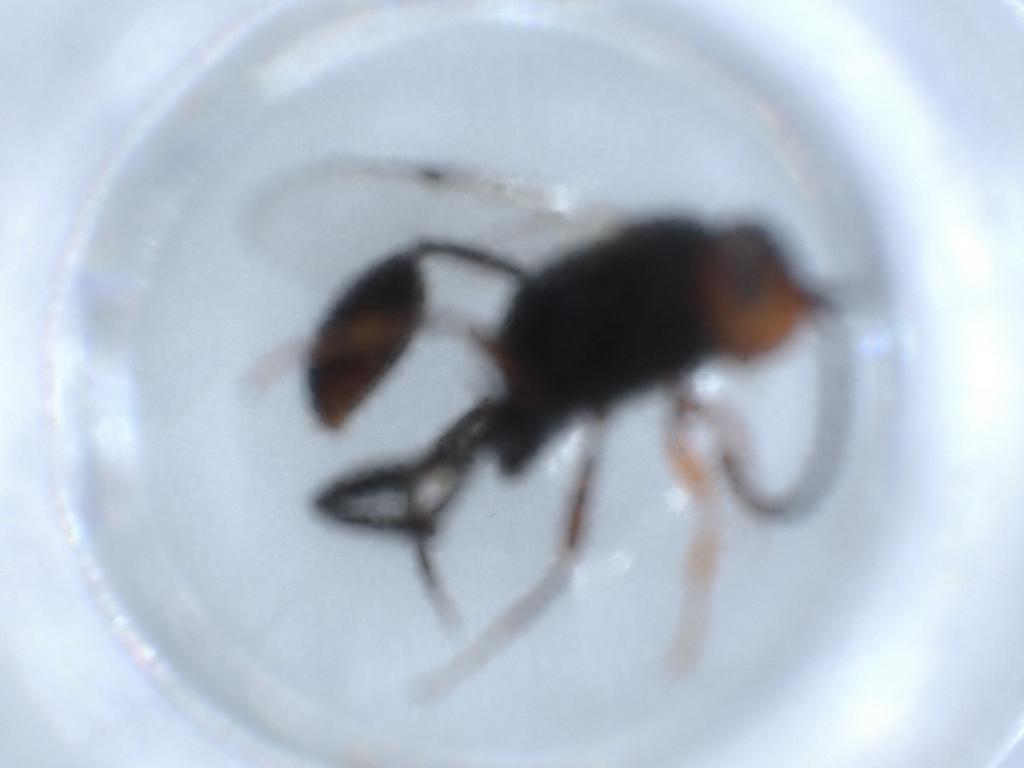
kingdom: Animalia
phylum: Arthropoda
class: Insecta
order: Hymenoptera
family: Evaniidae
